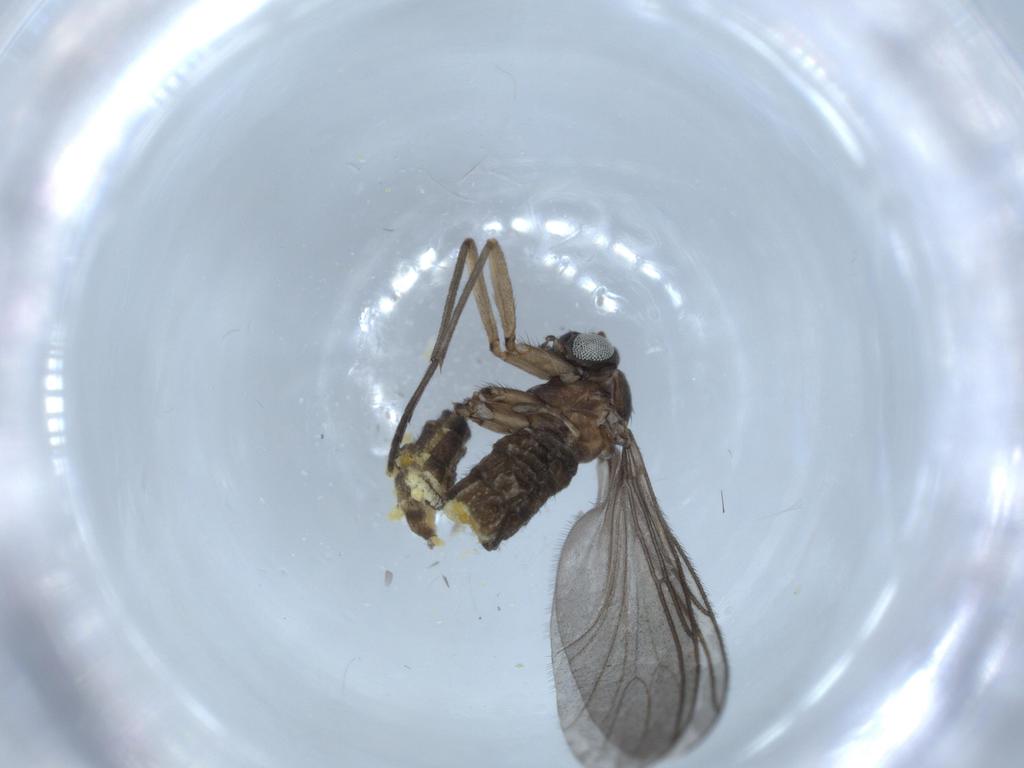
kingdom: Animalia
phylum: Arthropoda
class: Insecta
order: Diptera
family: Sciaridae
